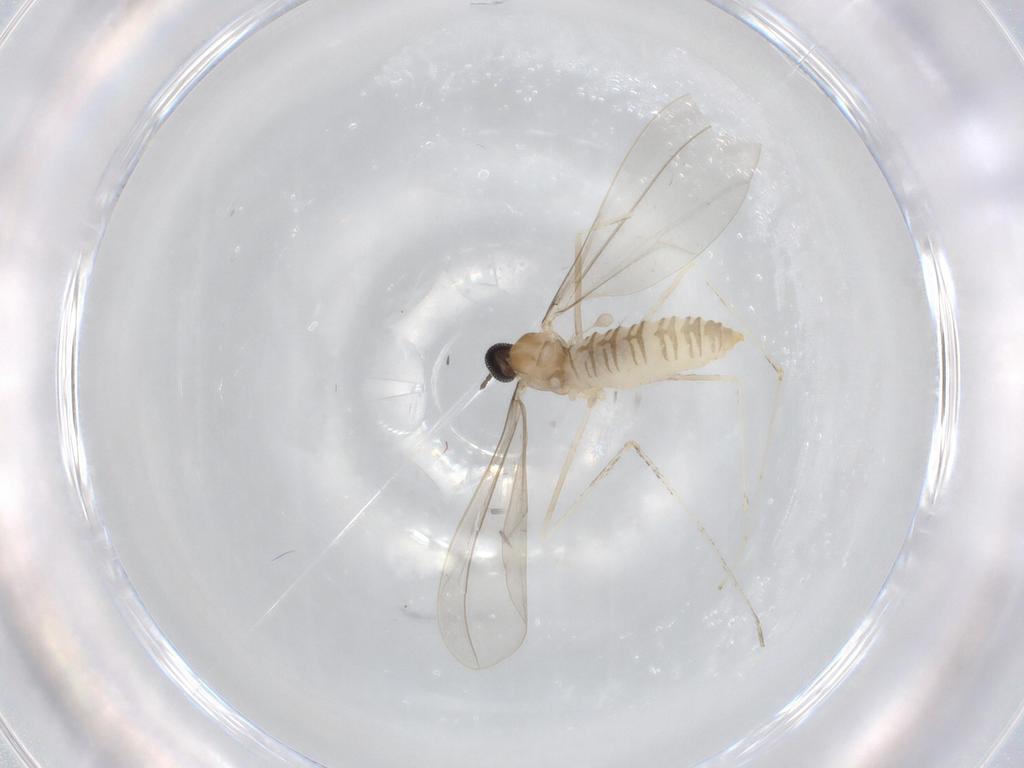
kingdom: Animalia
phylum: Arthropoda
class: Insecta
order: Diptera
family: Cecidomyiidae
